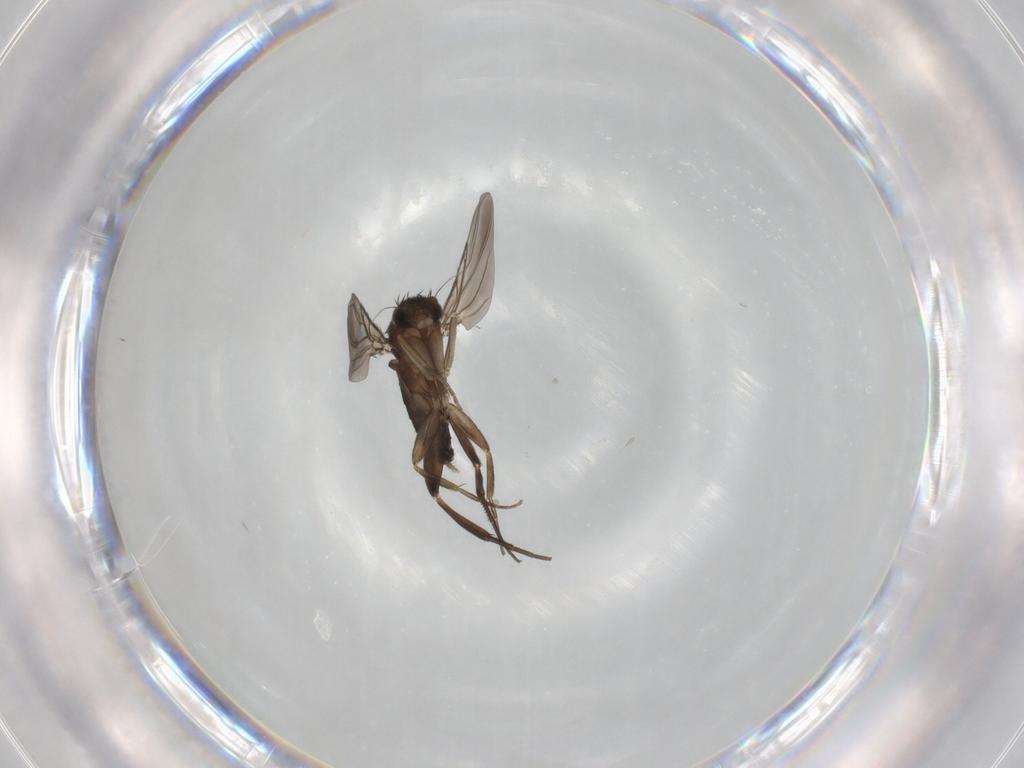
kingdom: Animalia
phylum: Arthropoda
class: Insecta
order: Diptera
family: Phoridae
